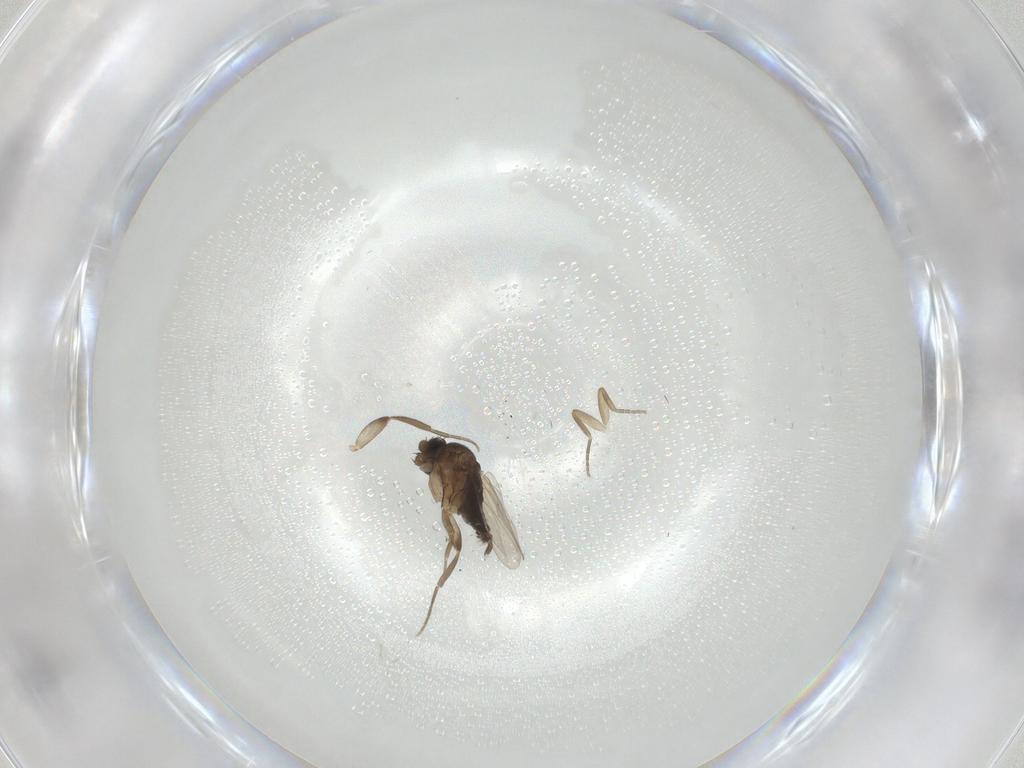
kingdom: Animalia
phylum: Arthropoda
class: Insecta
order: Diptera
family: Phoridae
